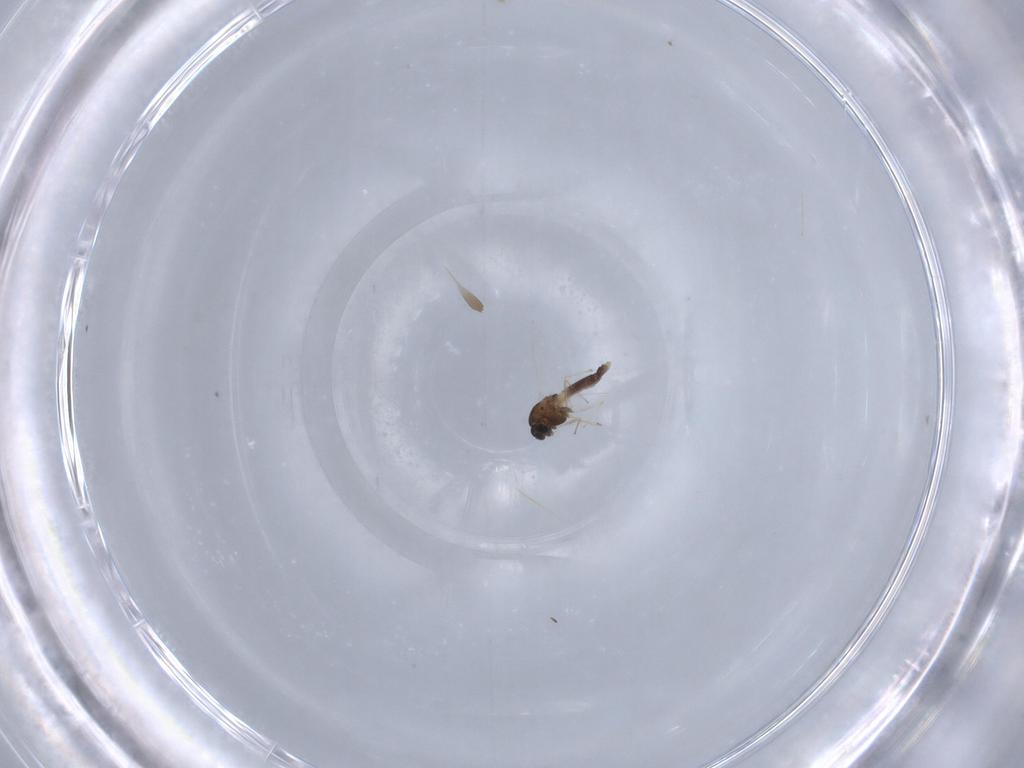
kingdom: Animalia
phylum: Arthropoda
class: Insecta
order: Diptera
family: Chironomidae
